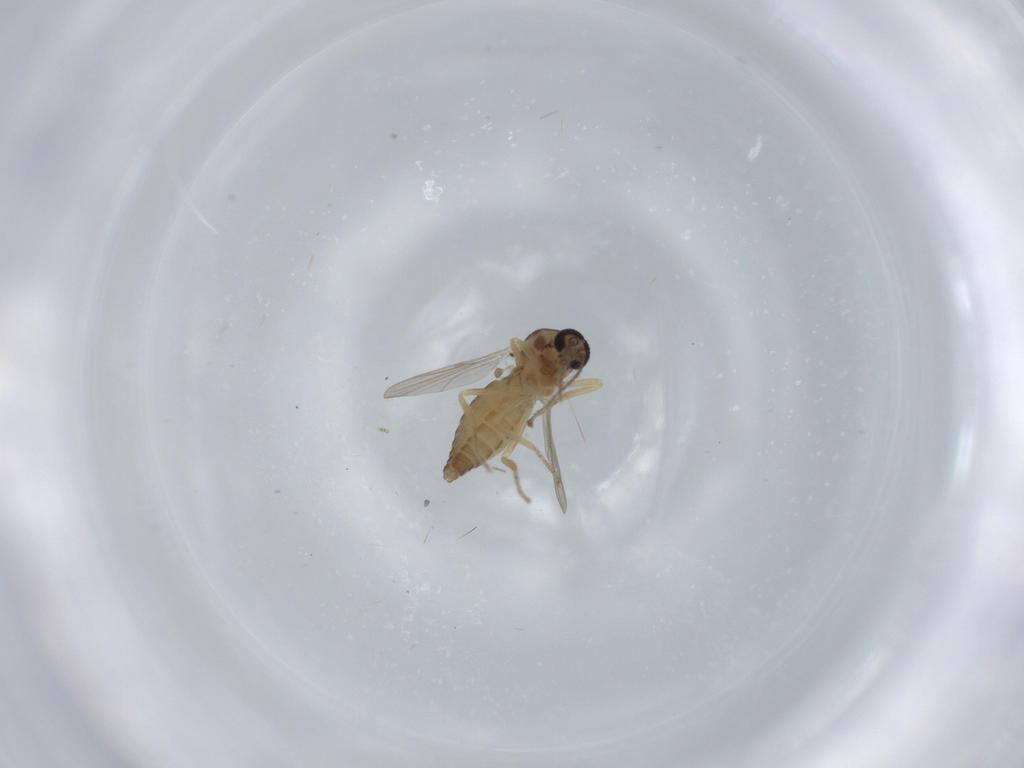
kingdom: Animalia
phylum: Arthropoda
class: Insecta
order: Diptera
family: Ceratopogonidae
